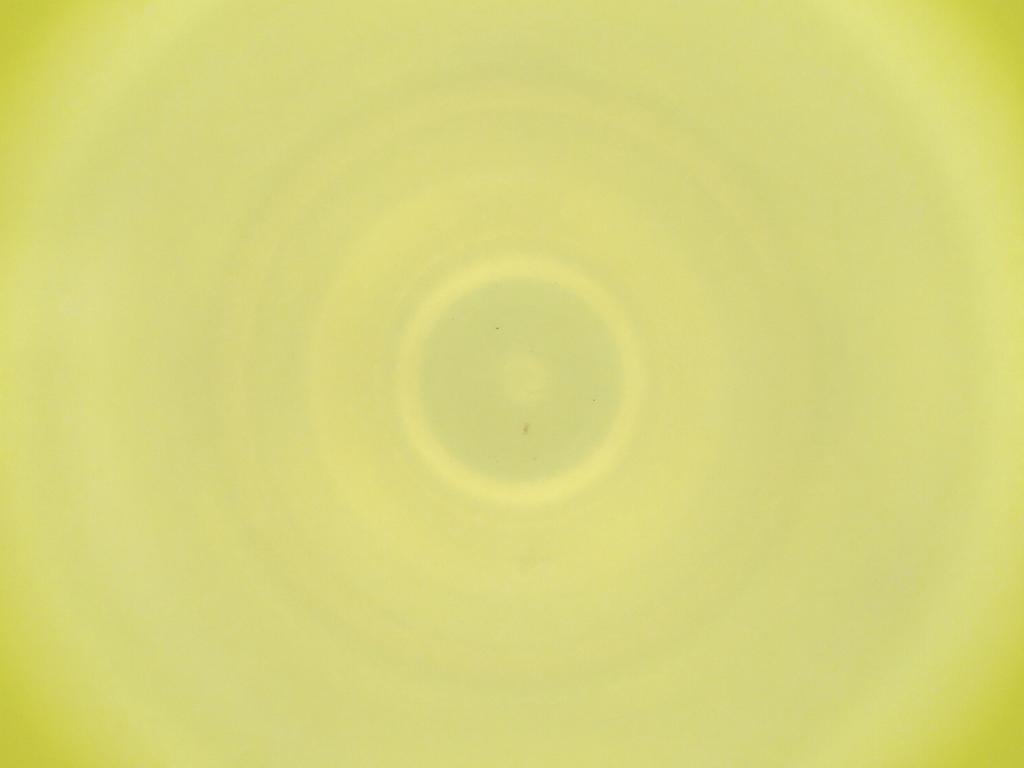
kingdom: Animalia
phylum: Arthropoda
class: Insecta
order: Diptera
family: Cecidomyiidae
